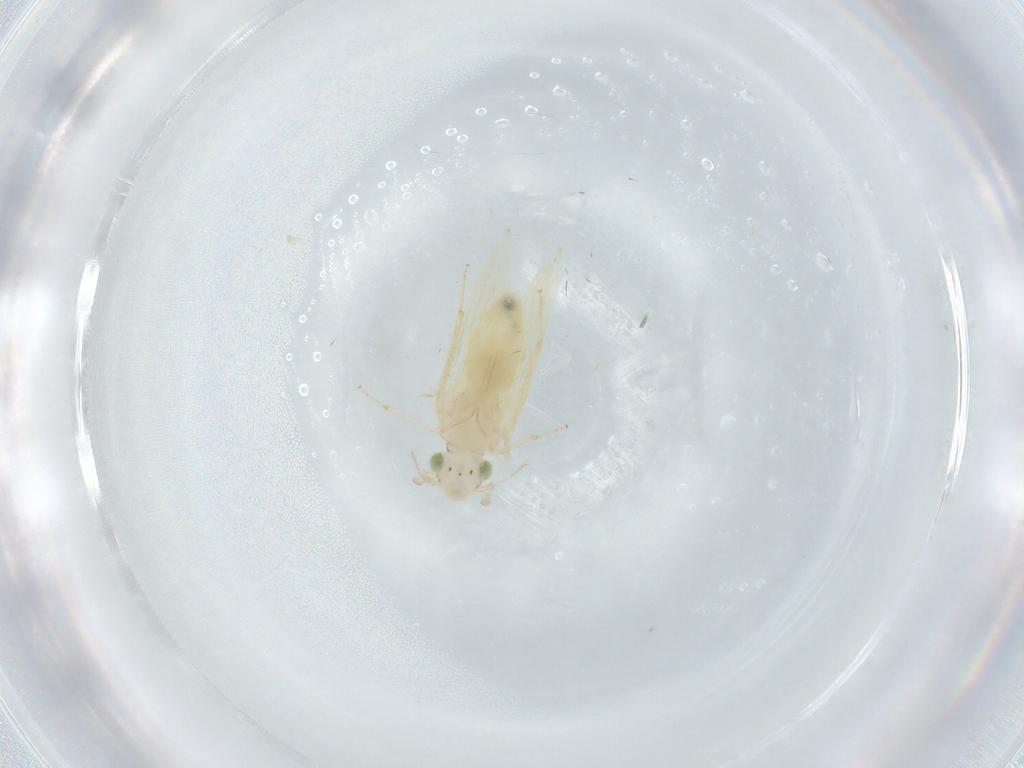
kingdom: Animalia
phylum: Arthropoda
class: Insecta
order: Psocodea
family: Lepidopsocidae
